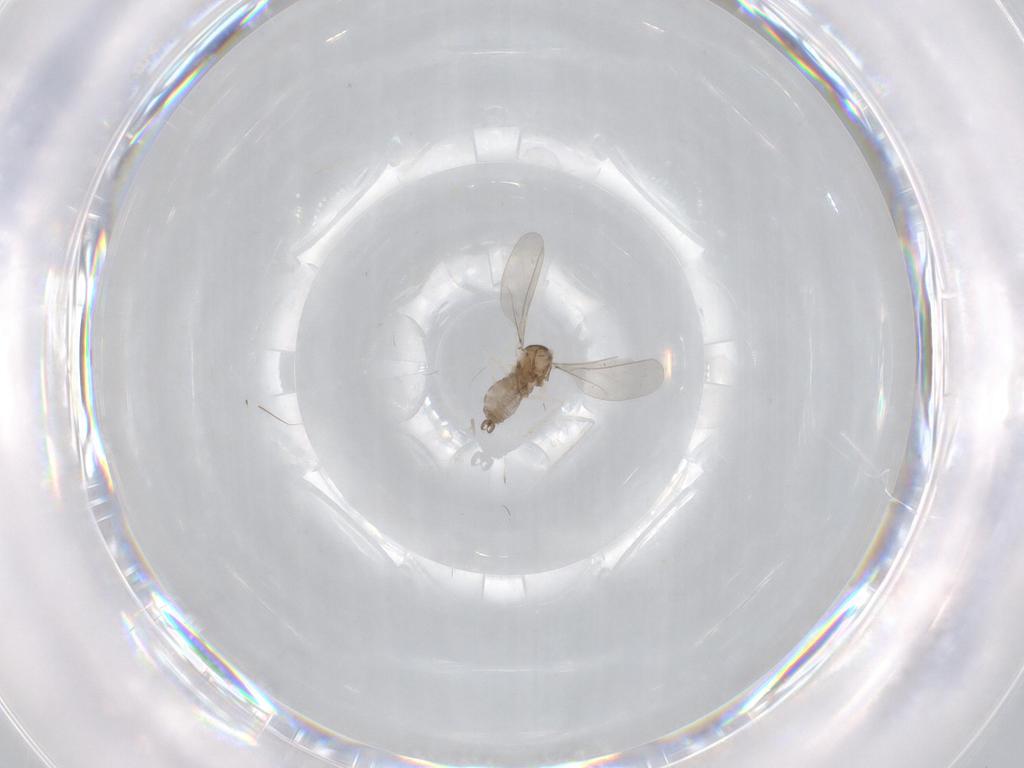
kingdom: Animalia
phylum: Arthropoda
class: Insecta
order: Diptera
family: Cecidomyiidae
